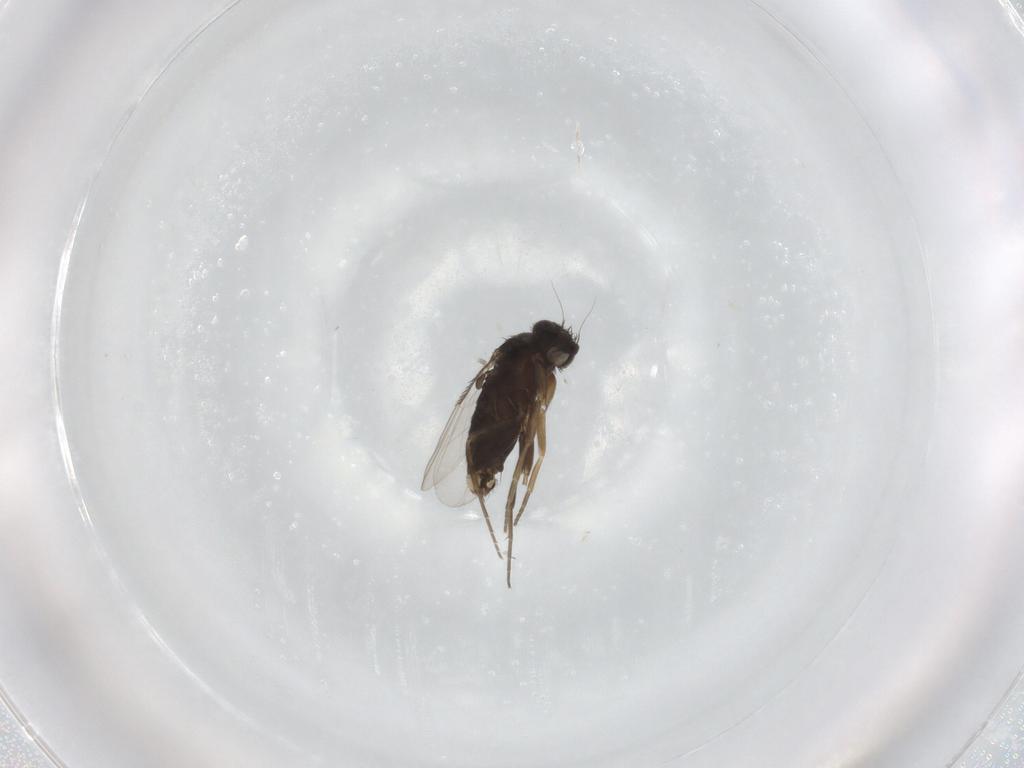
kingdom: Animalia
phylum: Arthropoda
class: Insecta
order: Diptera
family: Phoridae
